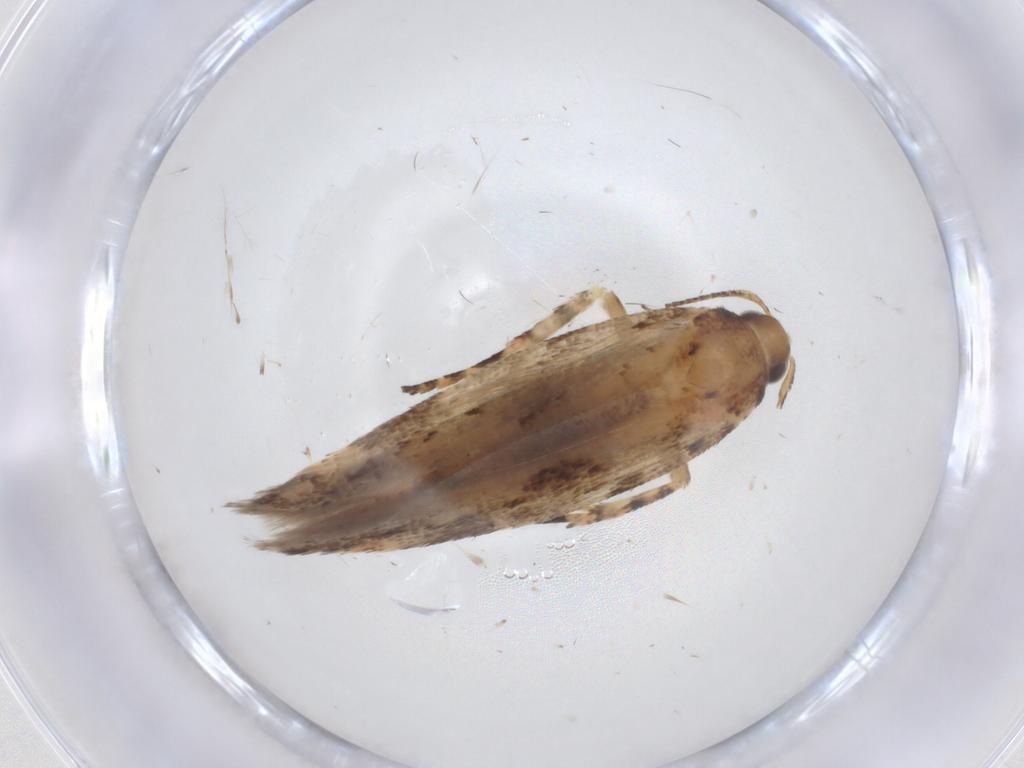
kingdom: Animalia
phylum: Arthropoda
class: Insecta
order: Lepidoptera
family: Gelechiidae
